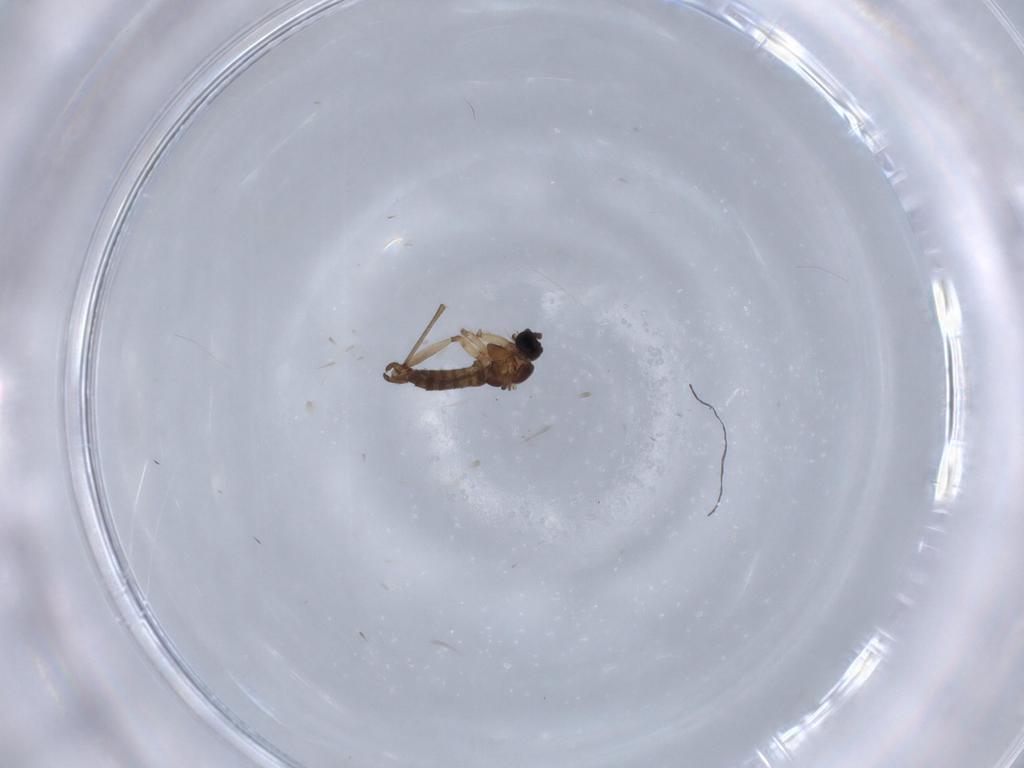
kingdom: Animalia
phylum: Arthropoda
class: Insecta
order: Diptera
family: Sciaridae
